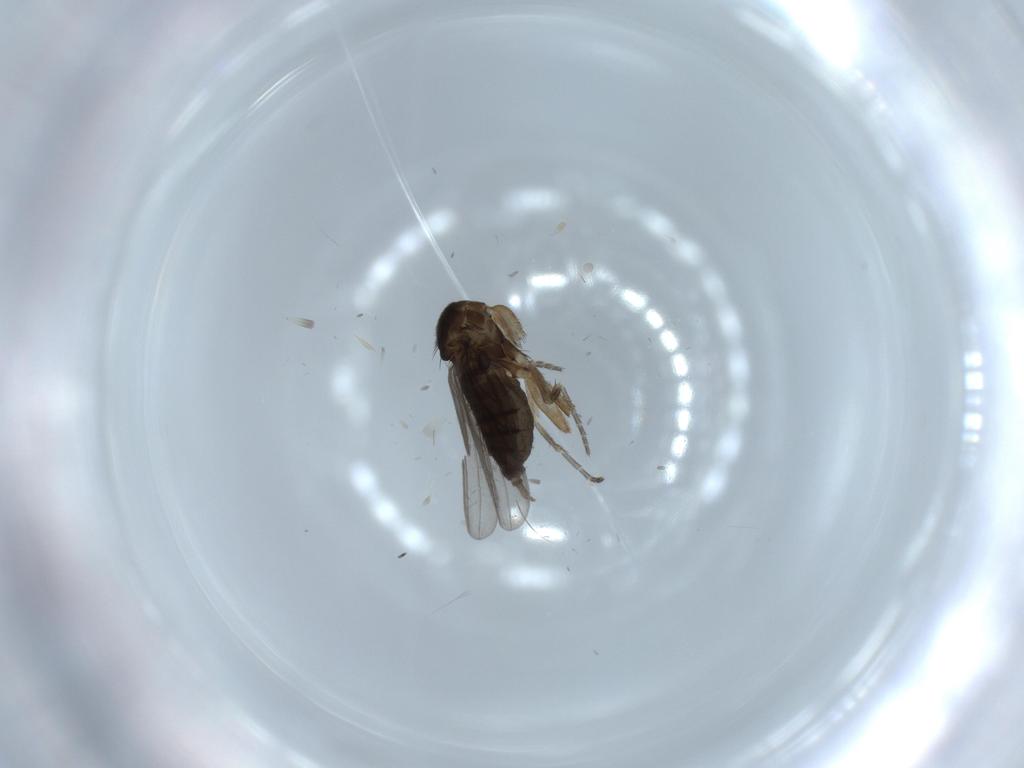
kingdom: Animalia
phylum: Arthropoda
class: Insecta
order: Diptera
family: Phoridae
